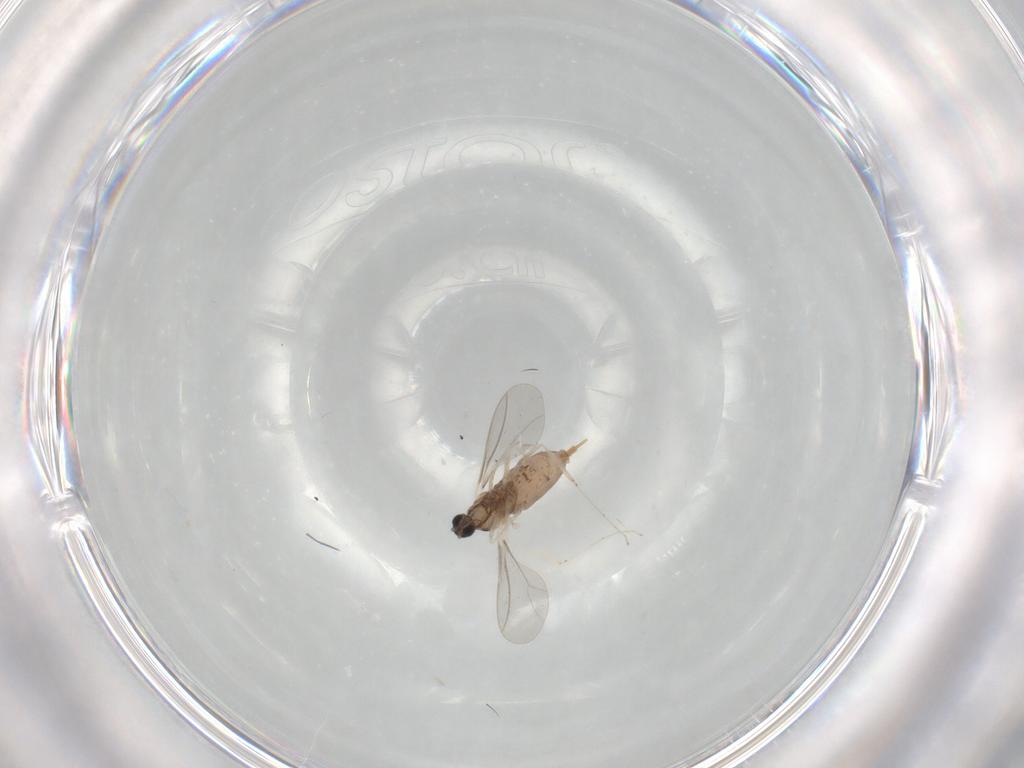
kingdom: Animalia
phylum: Arthropoda
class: Insecta
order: Diptera
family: Cecidomyiidae
